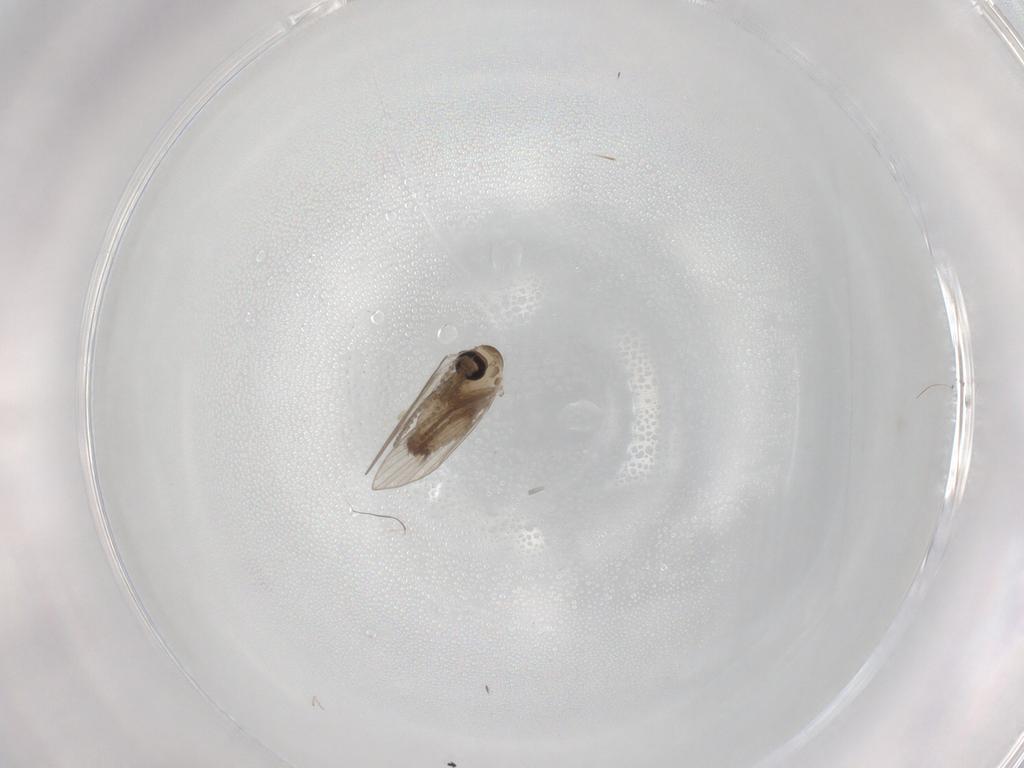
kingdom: Animalia
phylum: Arthropoda
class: Insecta
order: Diptera
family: Psychodidae
